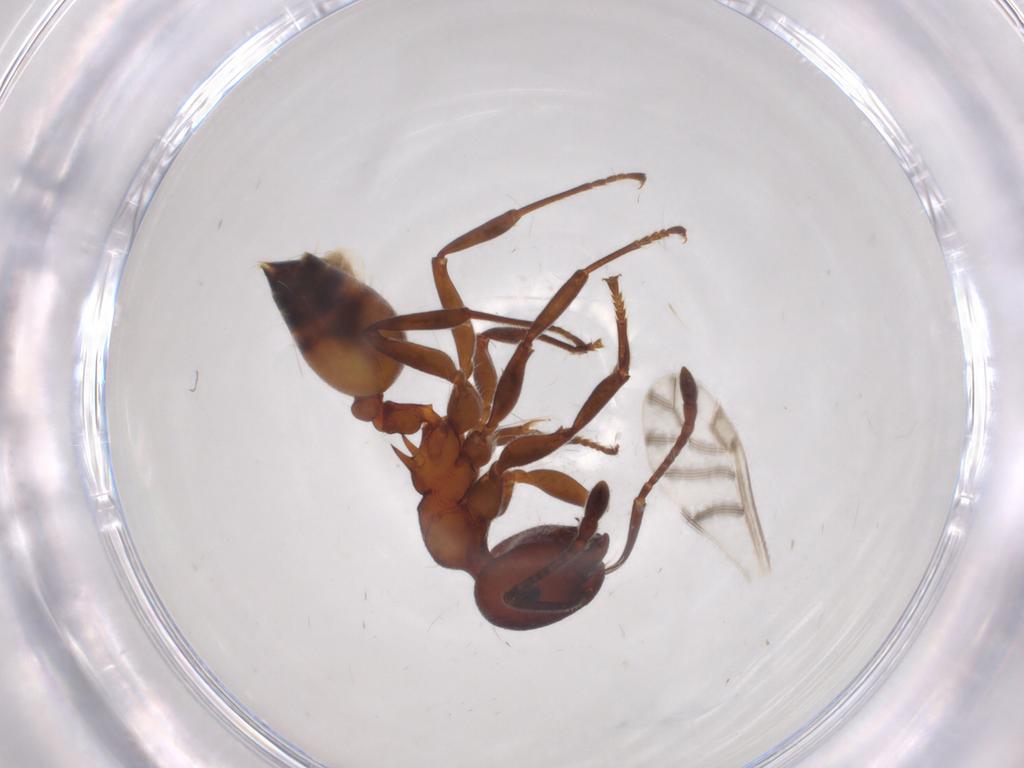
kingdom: Animalia
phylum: Arthropoda
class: Insecta
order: Hymenoptera
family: Formicidae
